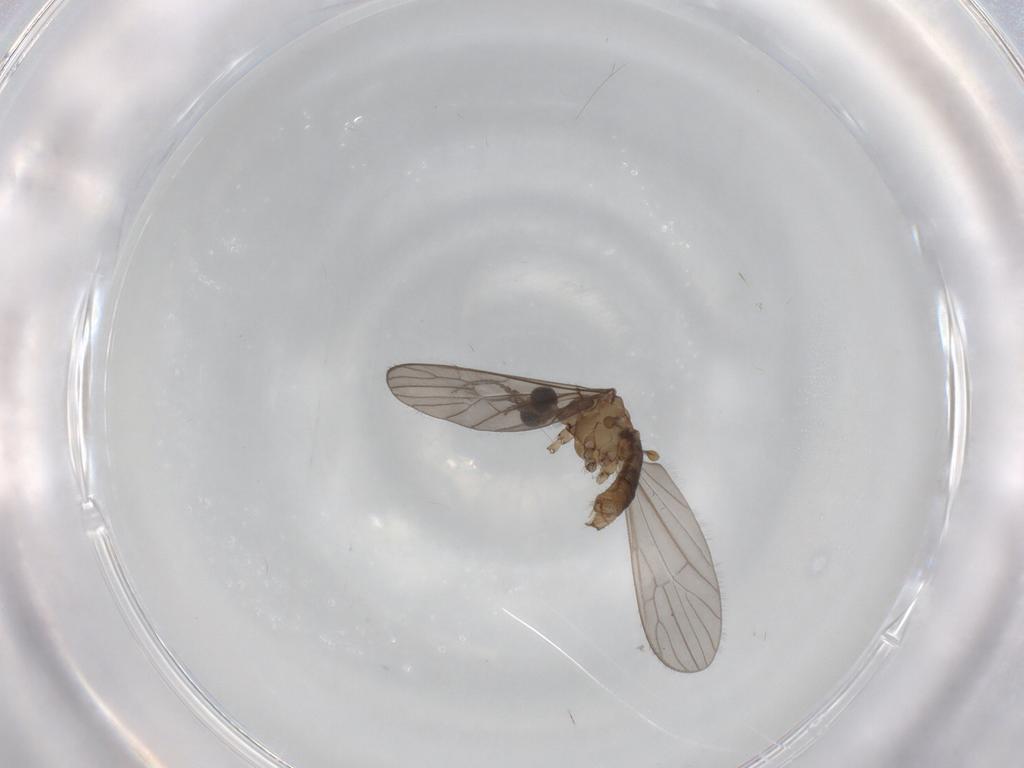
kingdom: Animalia
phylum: Arthropoda
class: Insecta
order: Diptera
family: Limoniidae
